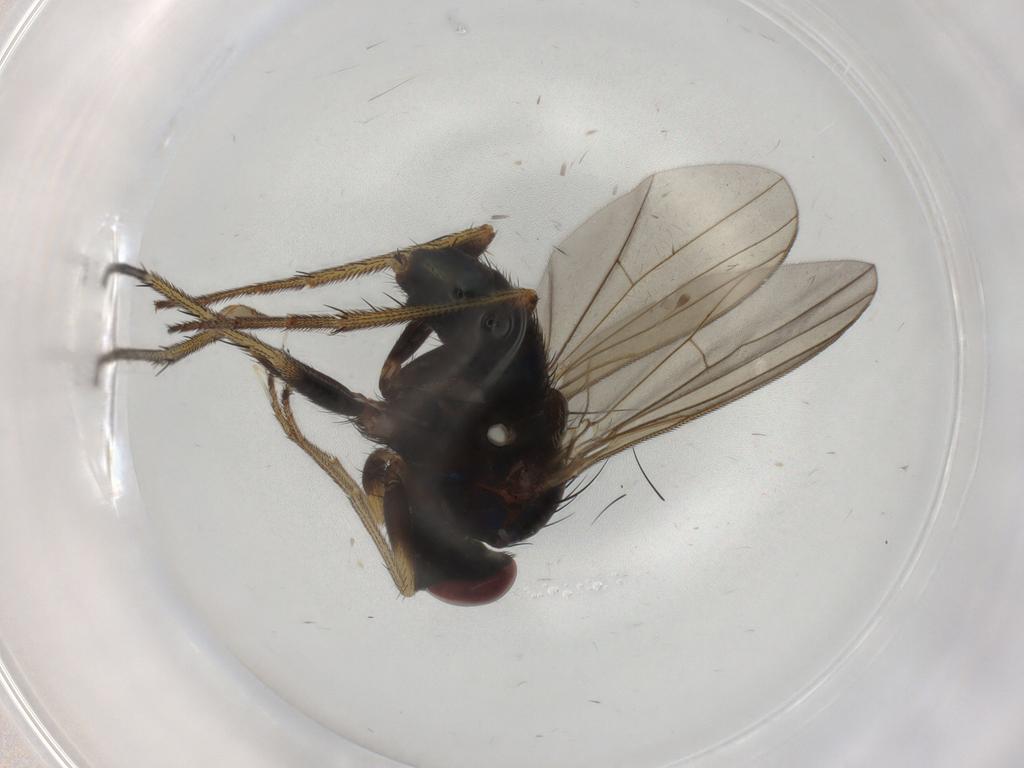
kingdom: Animalia
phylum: Arthropoda
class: Insecta
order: Diptera
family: Dolichopodidae
